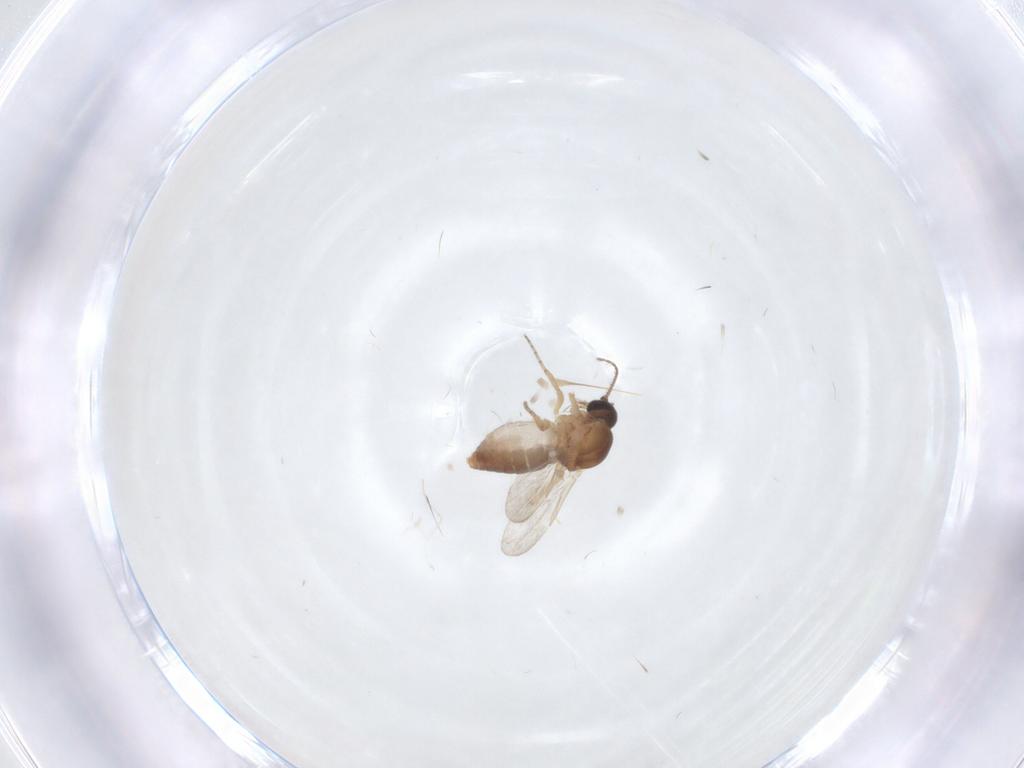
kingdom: Animalia
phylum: Arthropoda
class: Insecta
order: Diptera
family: Ceratopogonidae
